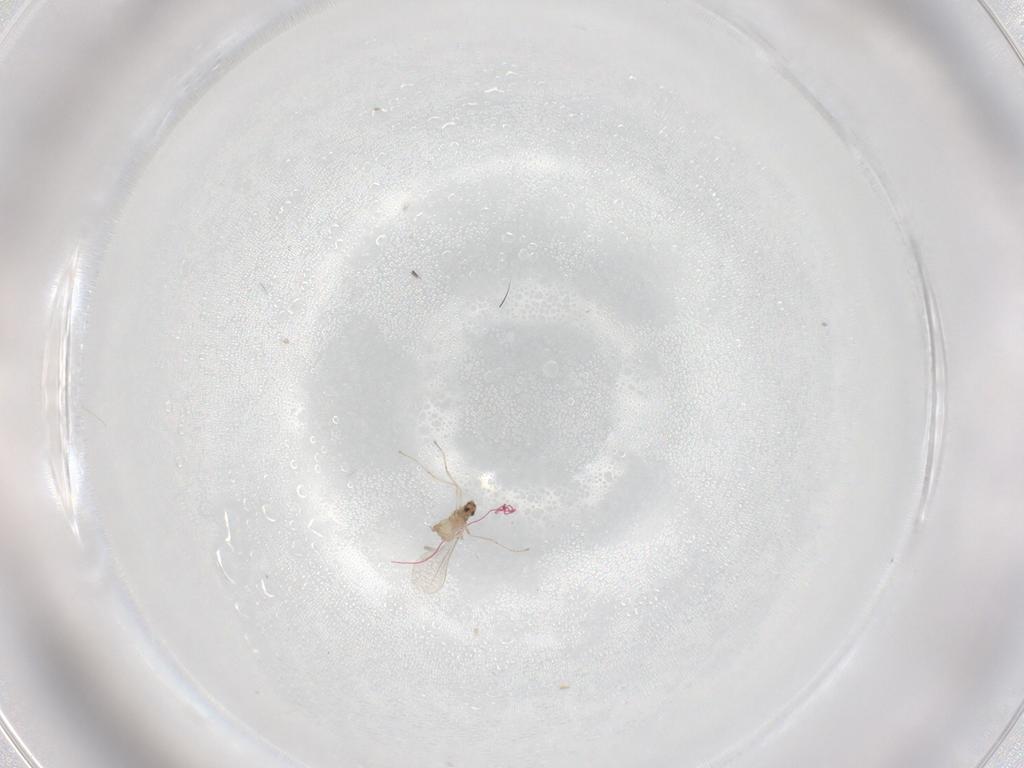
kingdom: Animalia
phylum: Arthropoda
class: Insecta
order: Diptera
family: Cecidomyiidae
